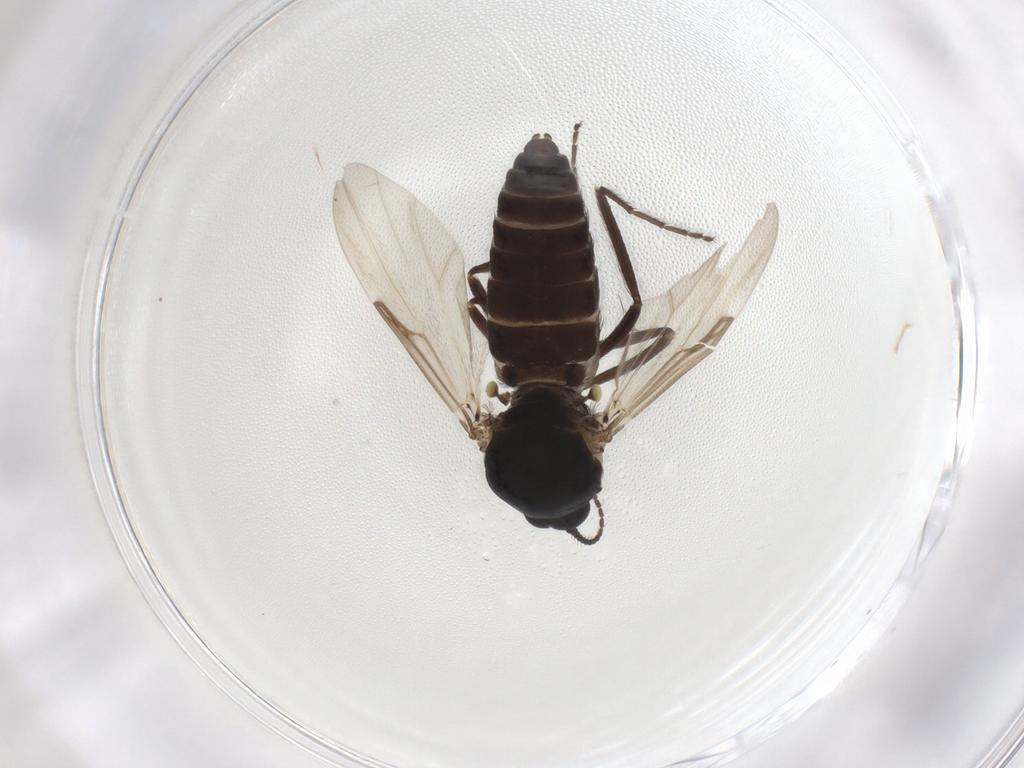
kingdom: Animalia
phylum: Arthropoda
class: Insecta
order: Diptera
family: Ceratopogonidae
